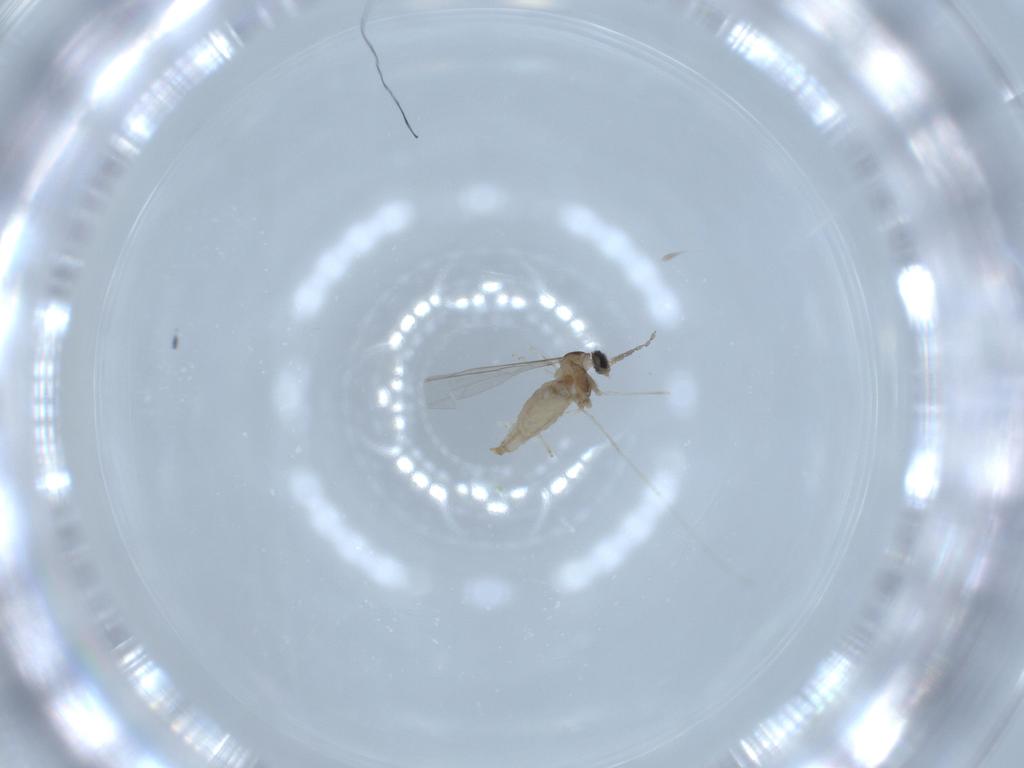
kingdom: Animalia
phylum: Arthropoda
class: Insecta
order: Diptera
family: Cecidomyiidae
